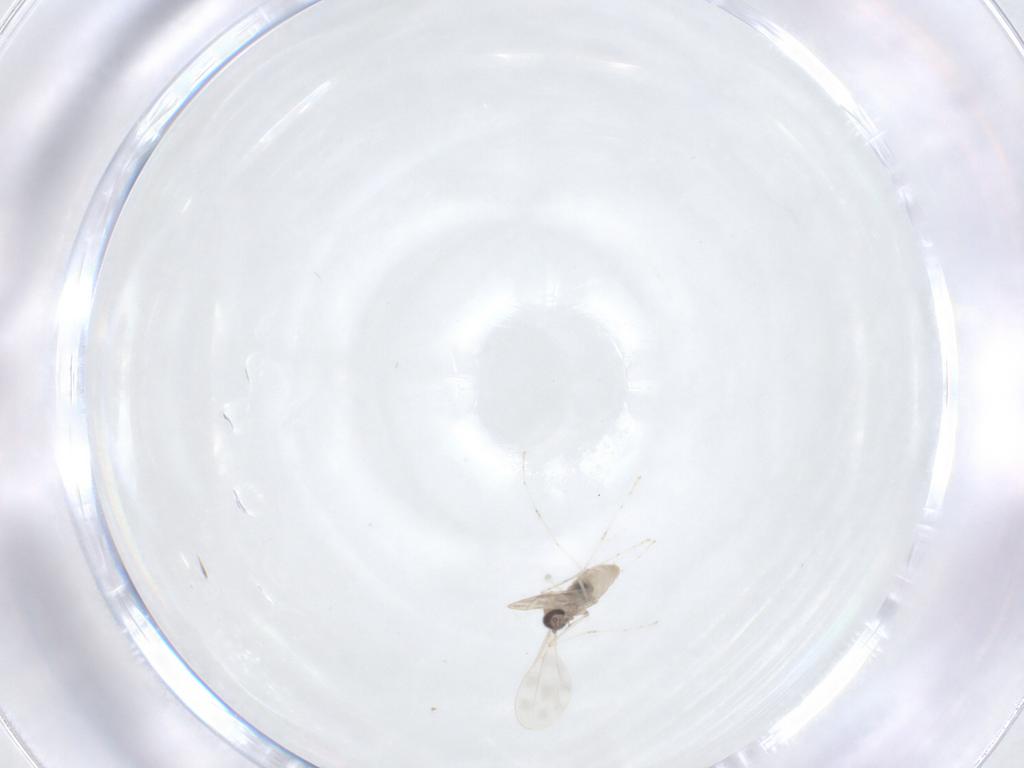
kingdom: Animalia
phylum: Arthropoda
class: Insecta
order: Diptera
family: Cecidomyiidae
